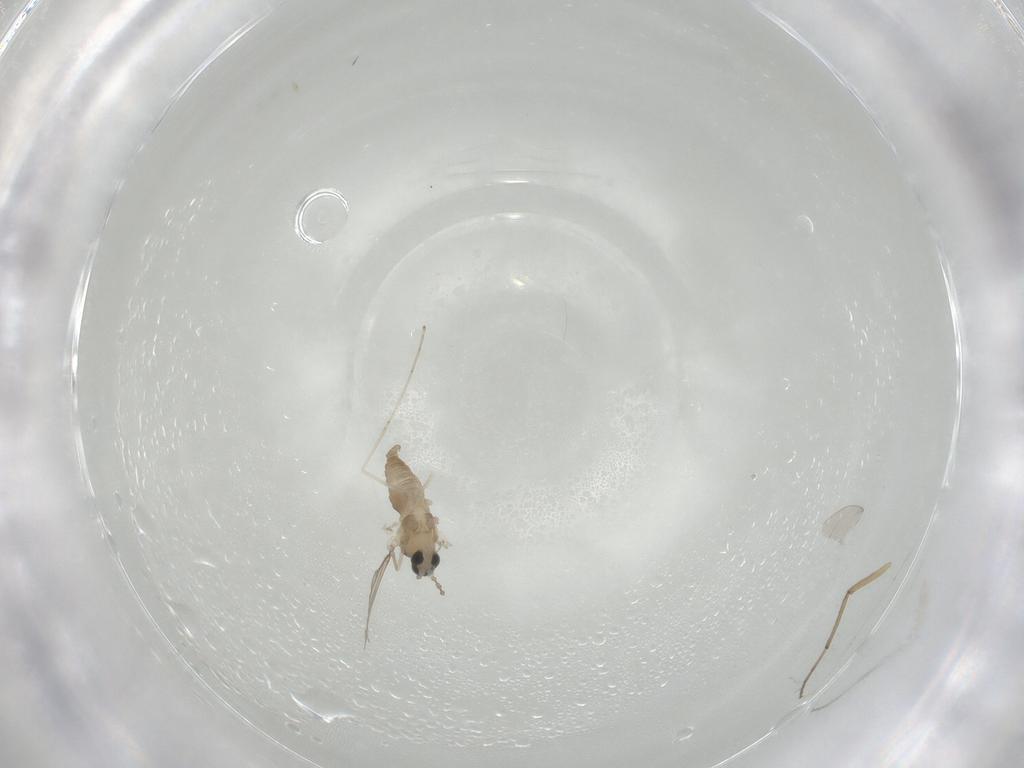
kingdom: Animalia
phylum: Arthropoda
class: Insecta
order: Diptera
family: Cecidomyiidae
